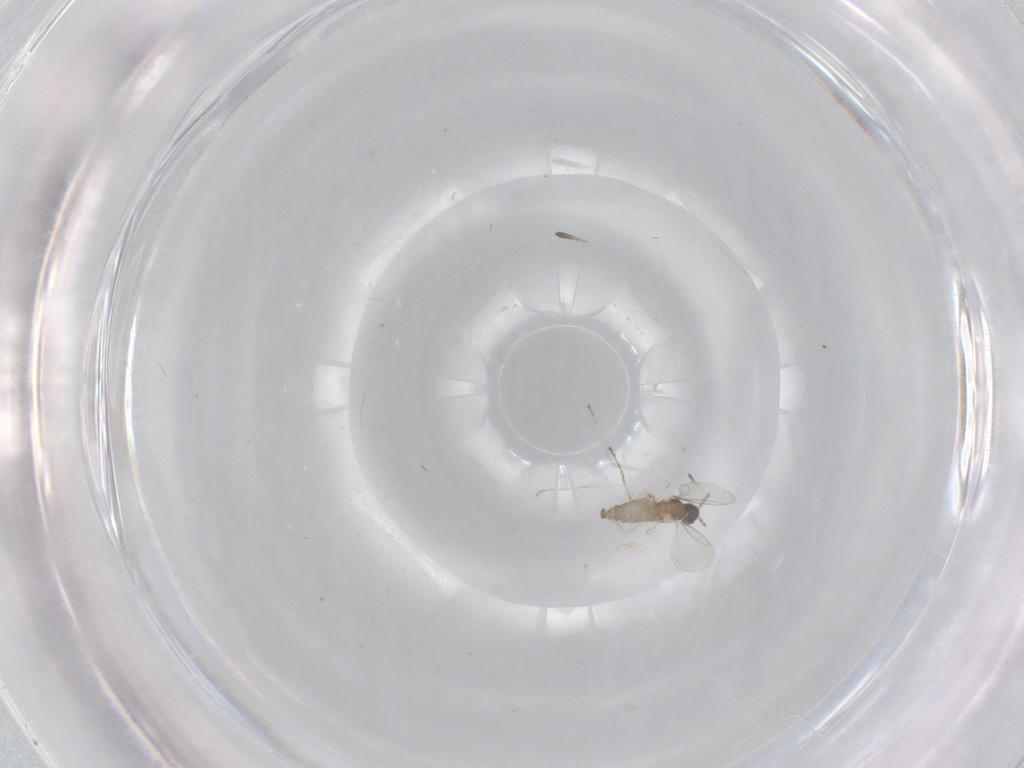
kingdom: Animalia
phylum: Arthropoda
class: Insecta
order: Diptera
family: Cecidomyiidae
